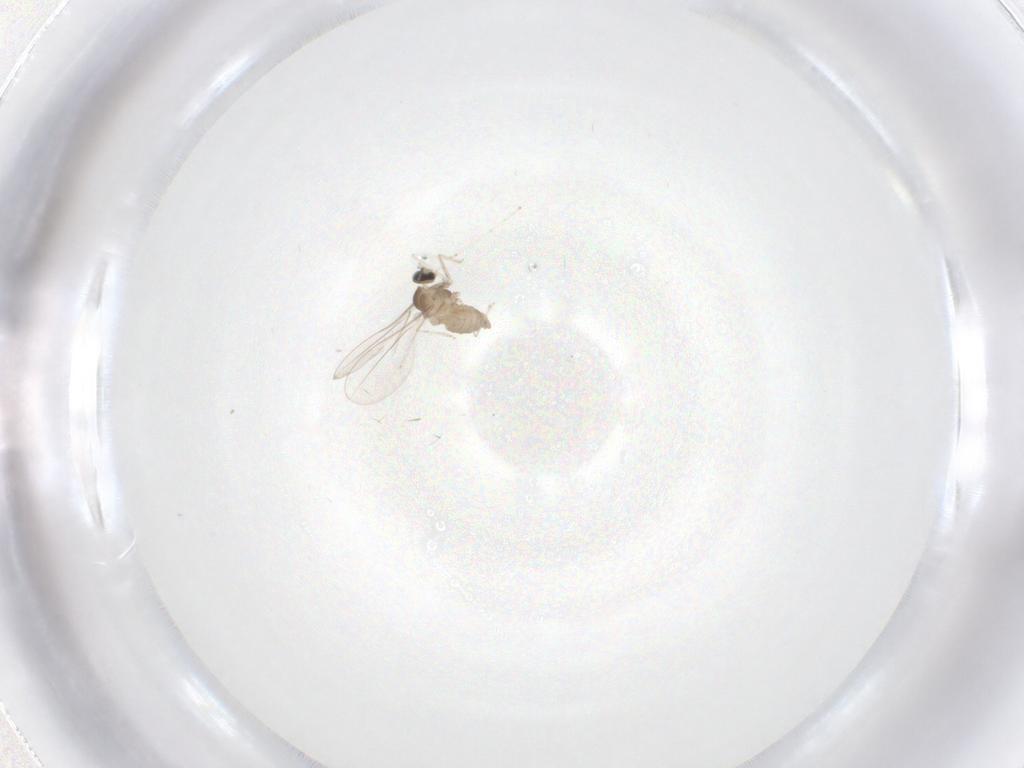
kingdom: Animalia
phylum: Arthropoda
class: Insecta
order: Diptera
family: Cecidomyiidae
